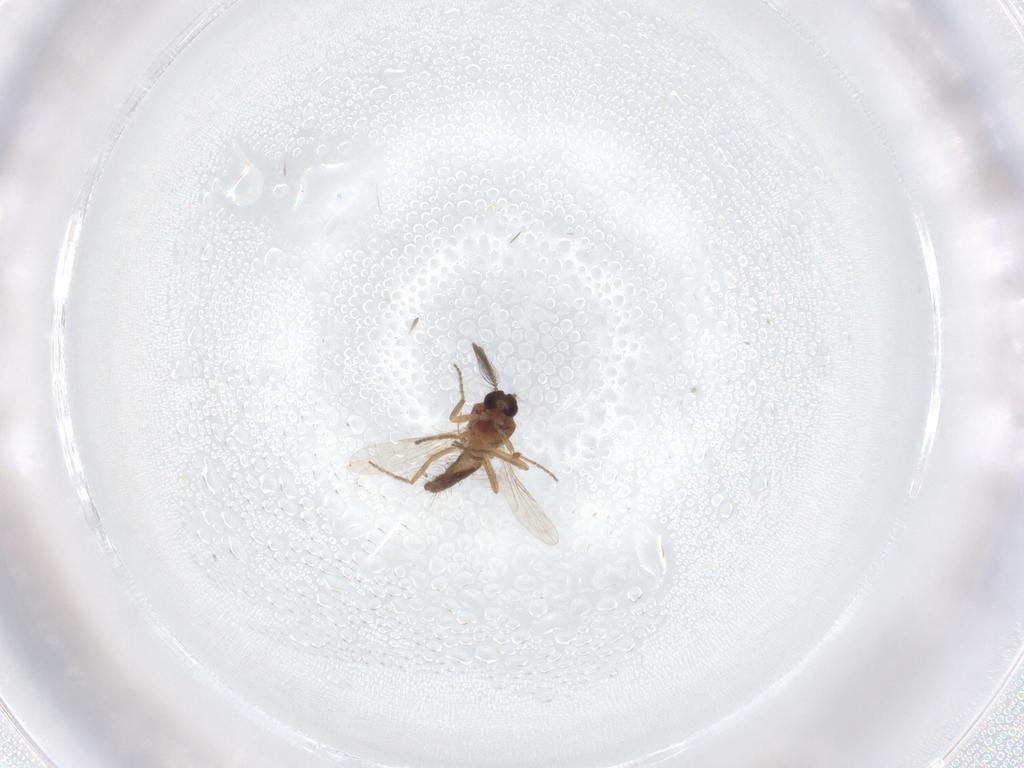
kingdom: Animalia
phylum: Arthropoda
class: Insecta
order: Diptera
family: Ceratopogonidae
